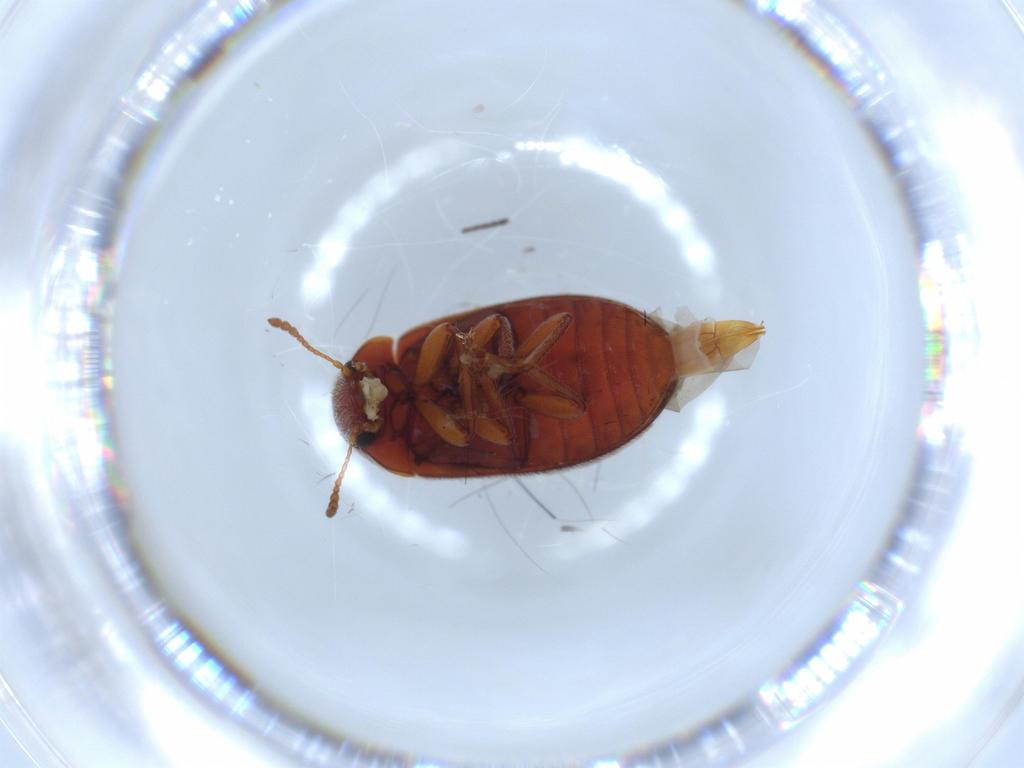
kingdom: Animalia
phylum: Arthropoda
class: Insecta
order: Coleoptera
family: Byturidae
